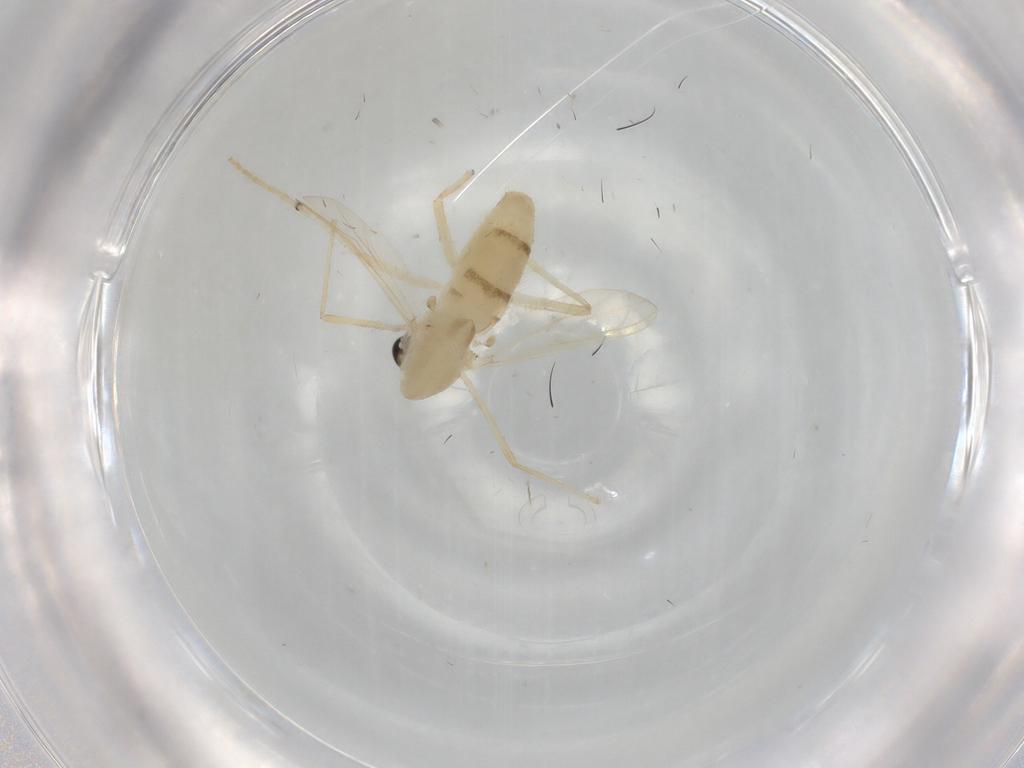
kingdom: Animalia
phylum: Arthropoda
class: Insecta
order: Diptera
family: Chironomidae
